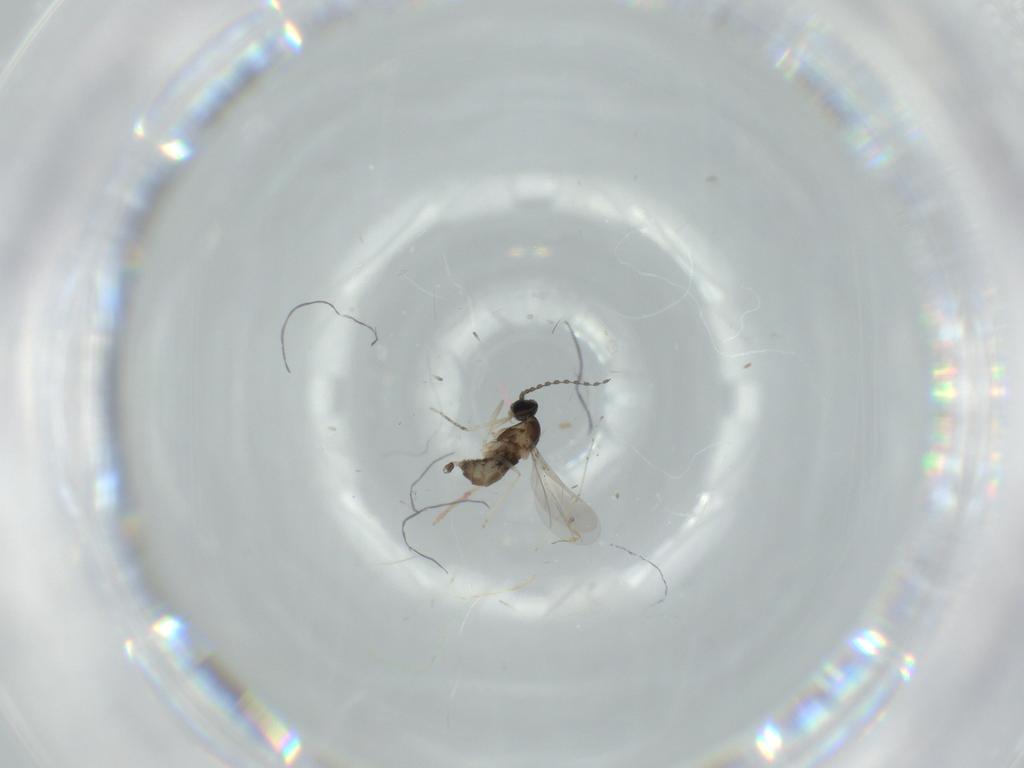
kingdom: Animalia
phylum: Arthropoda
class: Insecta
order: Diptera
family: Cecidomyiidae
